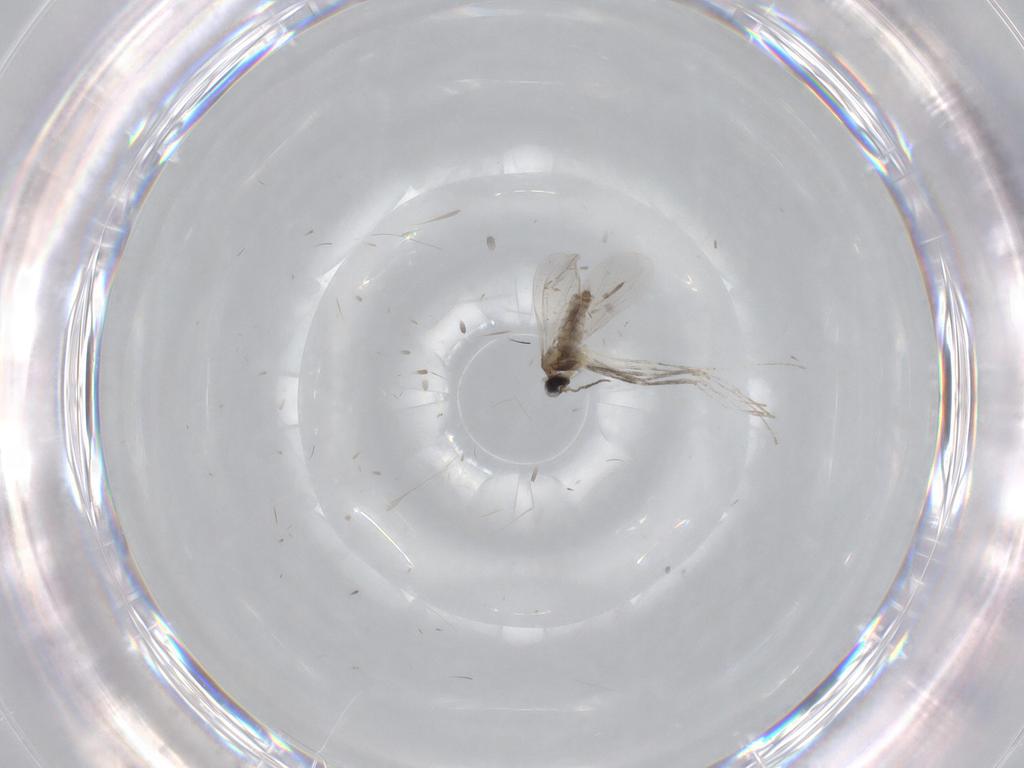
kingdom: Animalia
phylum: Arthropoda
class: Insecta
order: Diptera
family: Cecidomyiidae
